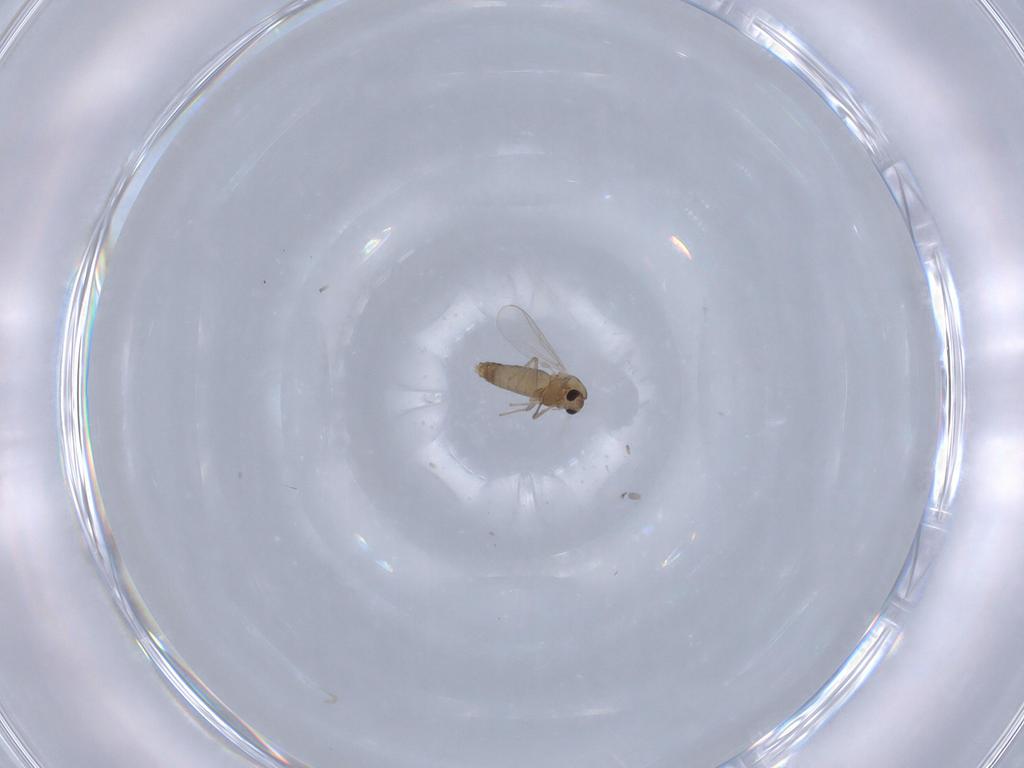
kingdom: Animalia
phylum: Arthropoda
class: Insecta
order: Diptera
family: Chironomidae
